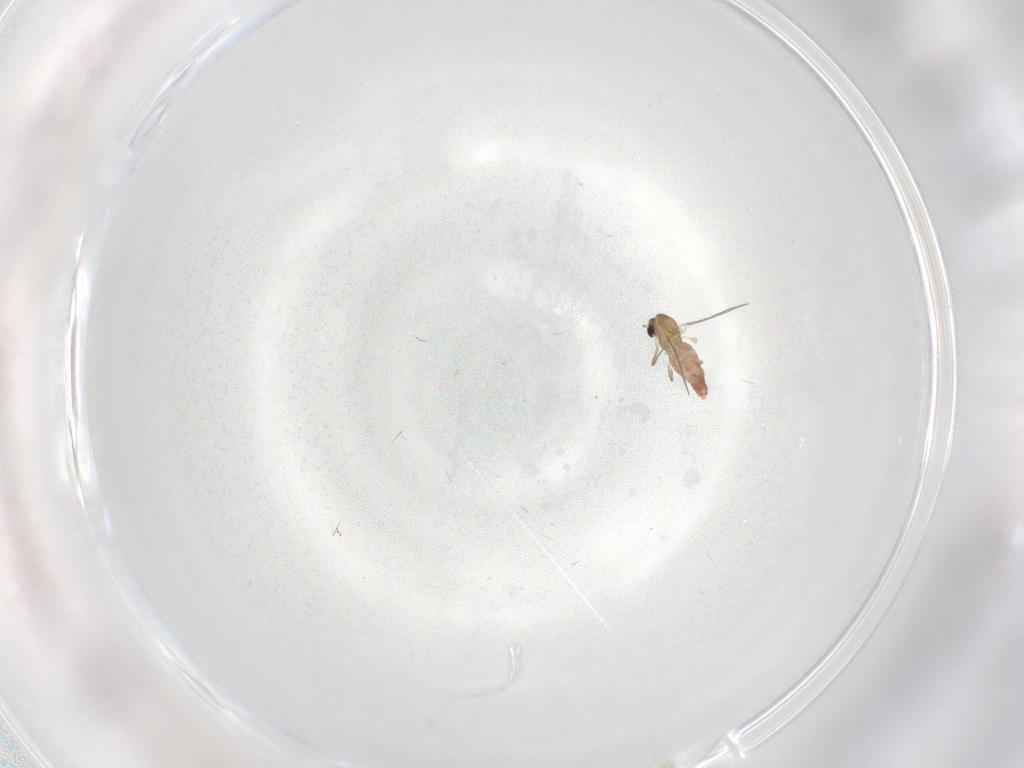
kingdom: Animalia
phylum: Arthropoda
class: Insecta
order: Diptera
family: Chironomidae
